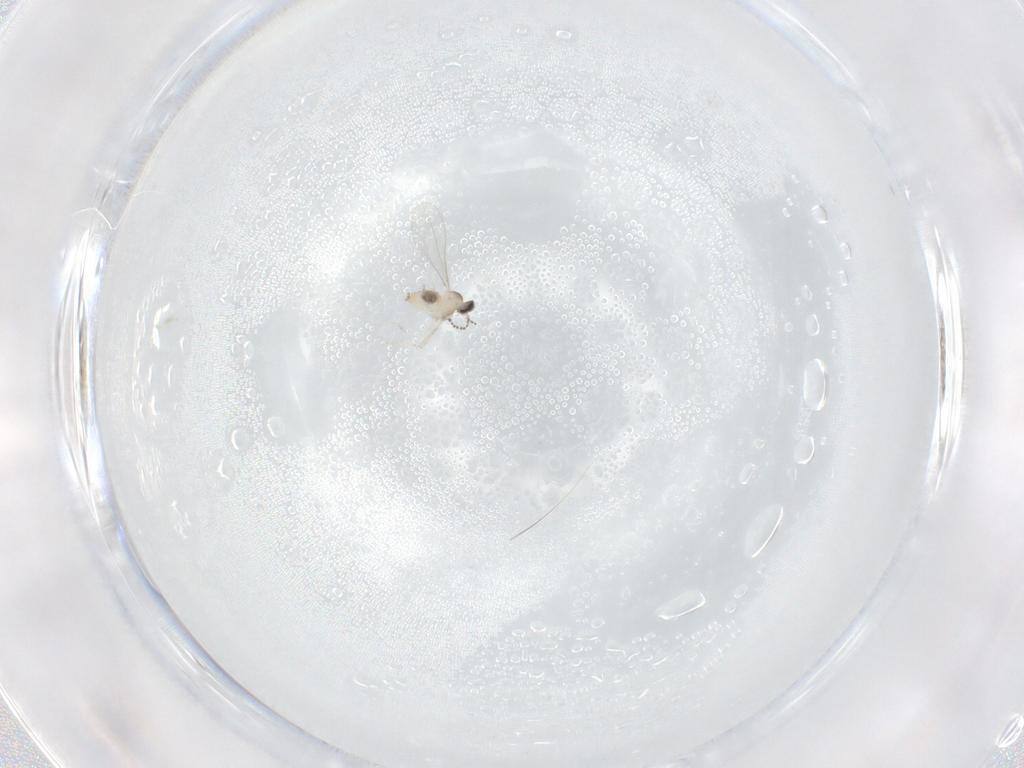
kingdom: Animalia
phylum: Arthropoda
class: Insecta
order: Diptera
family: Cecidomyiidae
